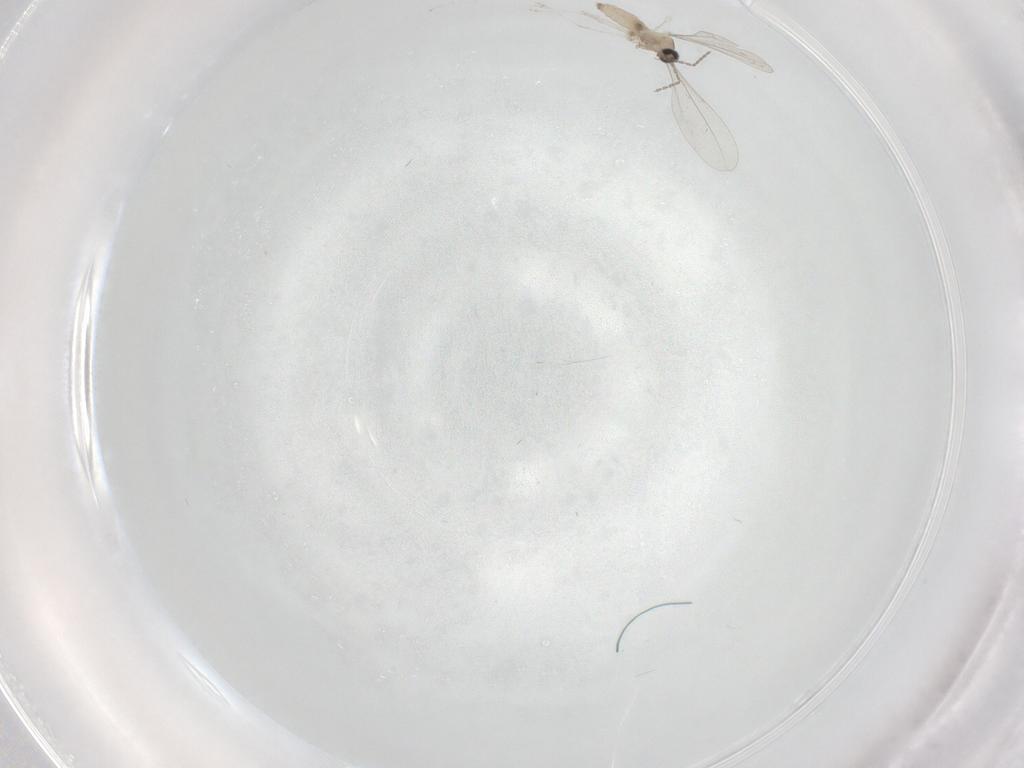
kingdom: Animalia
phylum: Arthropoda
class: Insecta
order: Diptera
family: Cecidomyiidae
